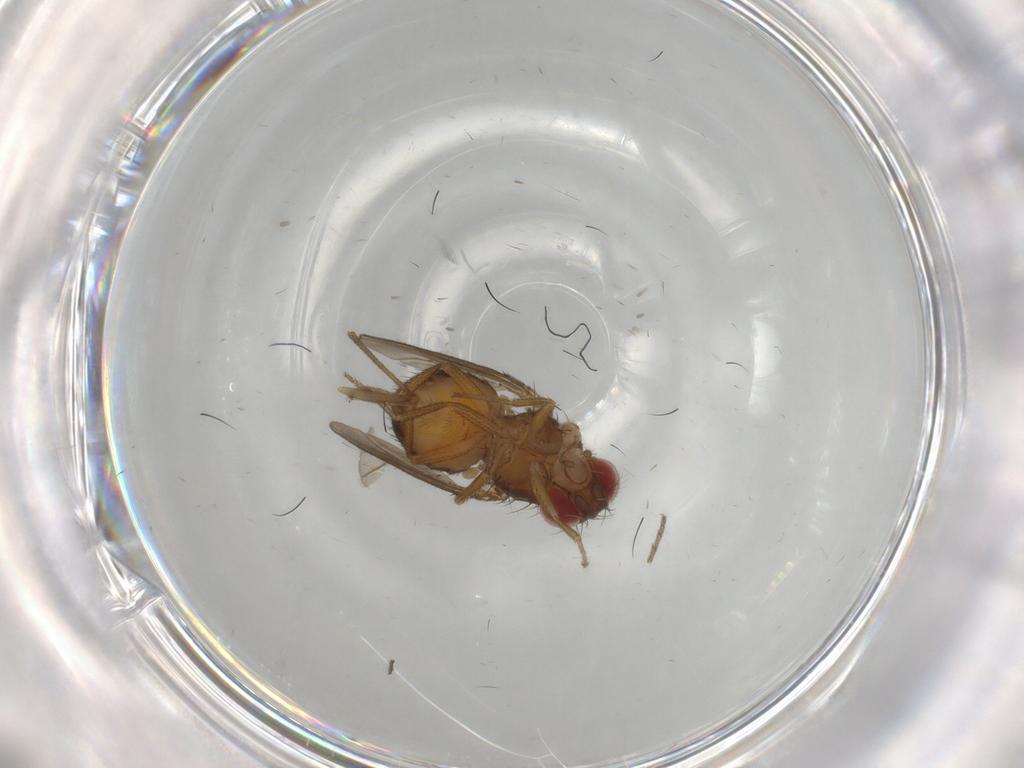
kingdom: Animalia
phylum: Arthropoda
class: Insecta
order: Diptera
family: Drosophilidae
